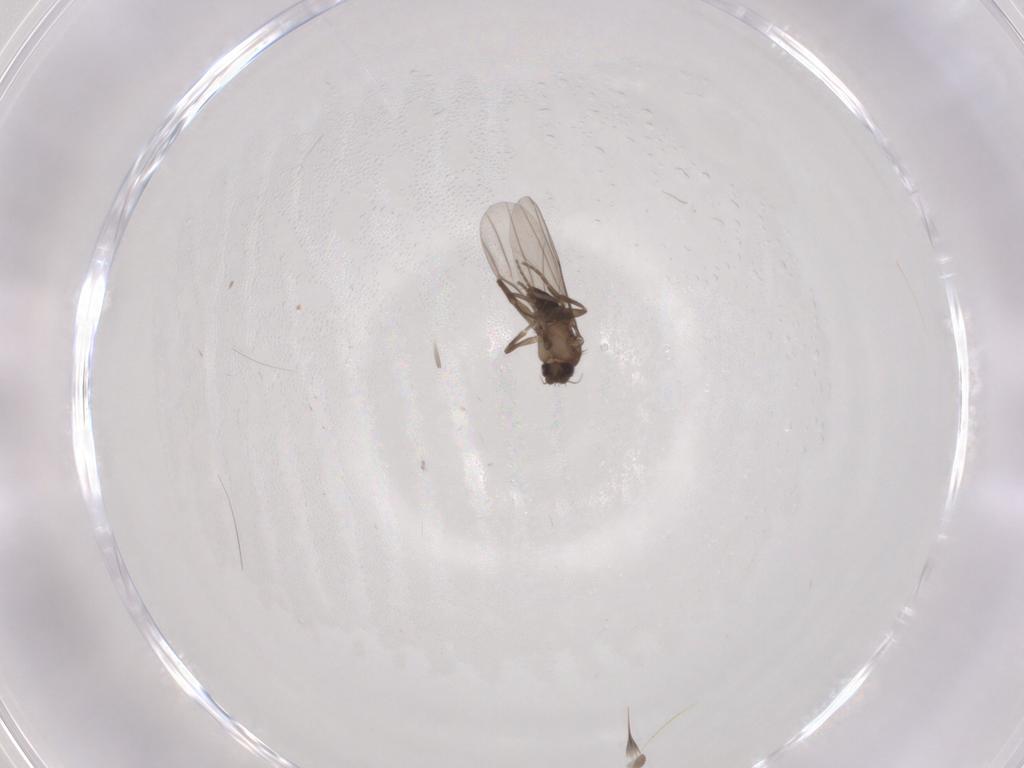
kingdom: Animalia
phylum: Arthropoda
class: Insecta
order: Diptera
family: Phoridae
